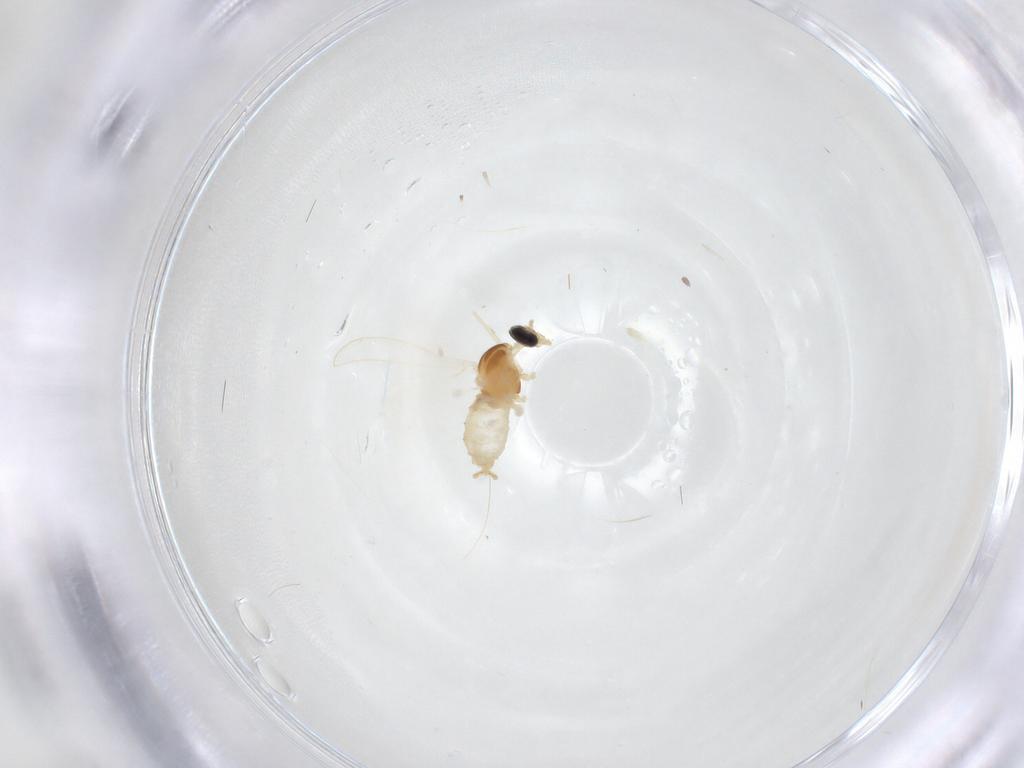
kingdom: Animalia
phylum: Arthropoda
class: Insecta
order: Diptera
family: Cecidomyiidae
